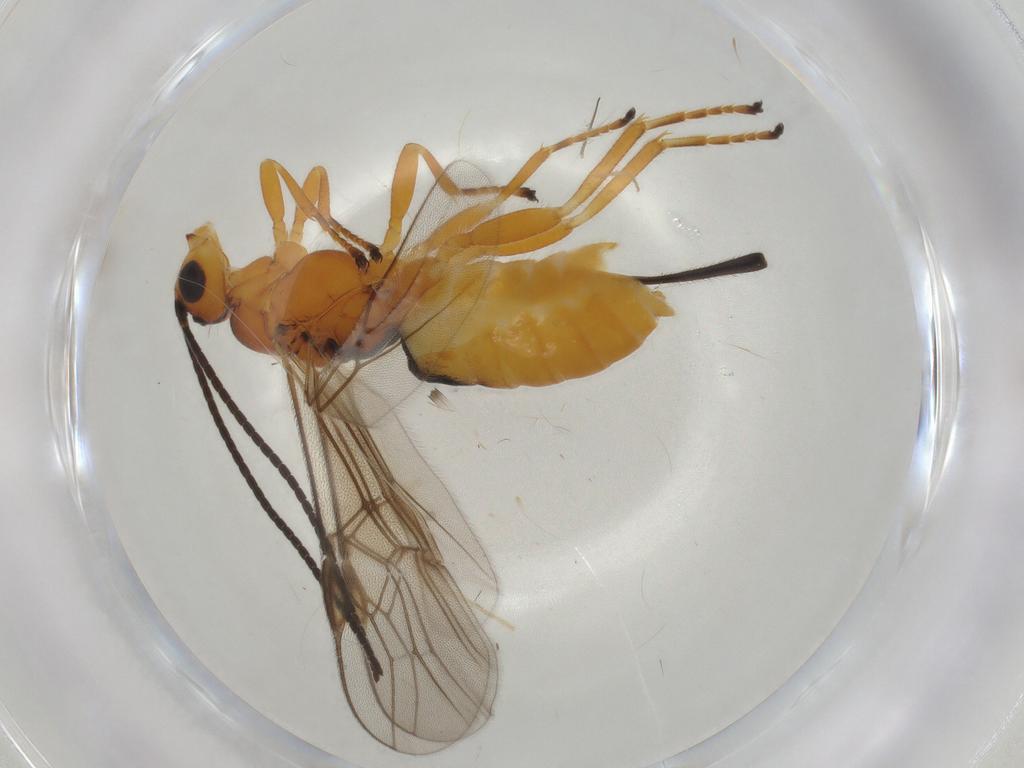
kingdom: Animalia
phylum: Arthropoda
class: Insecta
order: Hymenoptera
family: Braconidae
